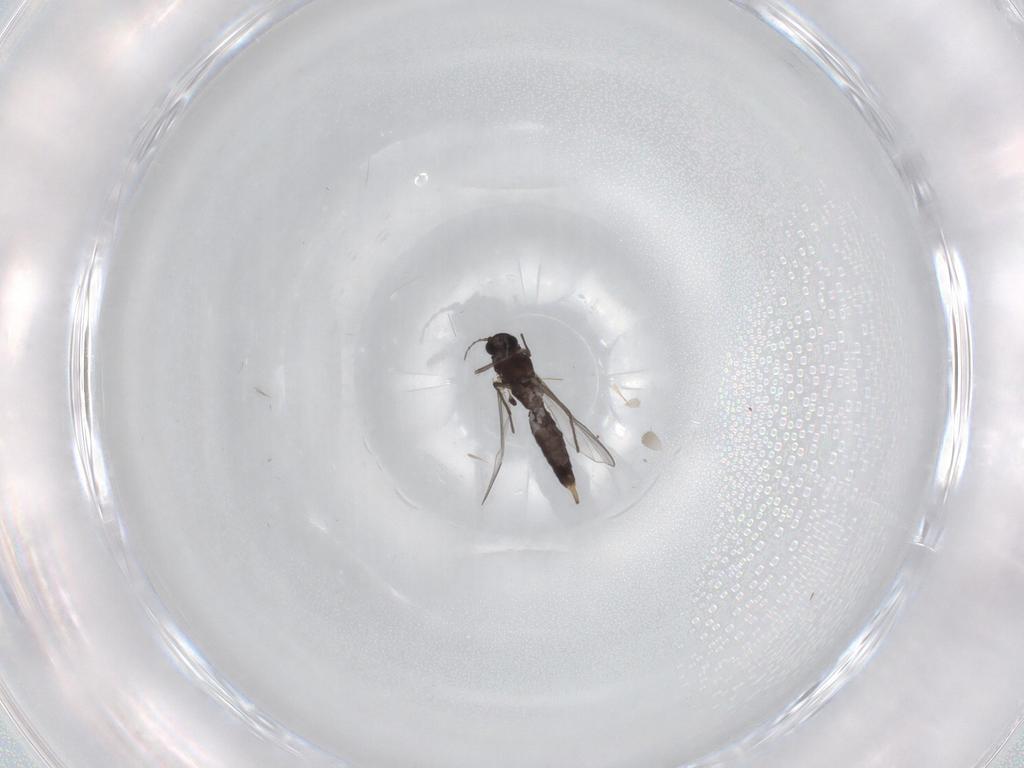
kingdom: Animalia
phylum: Arthropoda
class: Insecta
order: Diptera
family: Chironomidae
